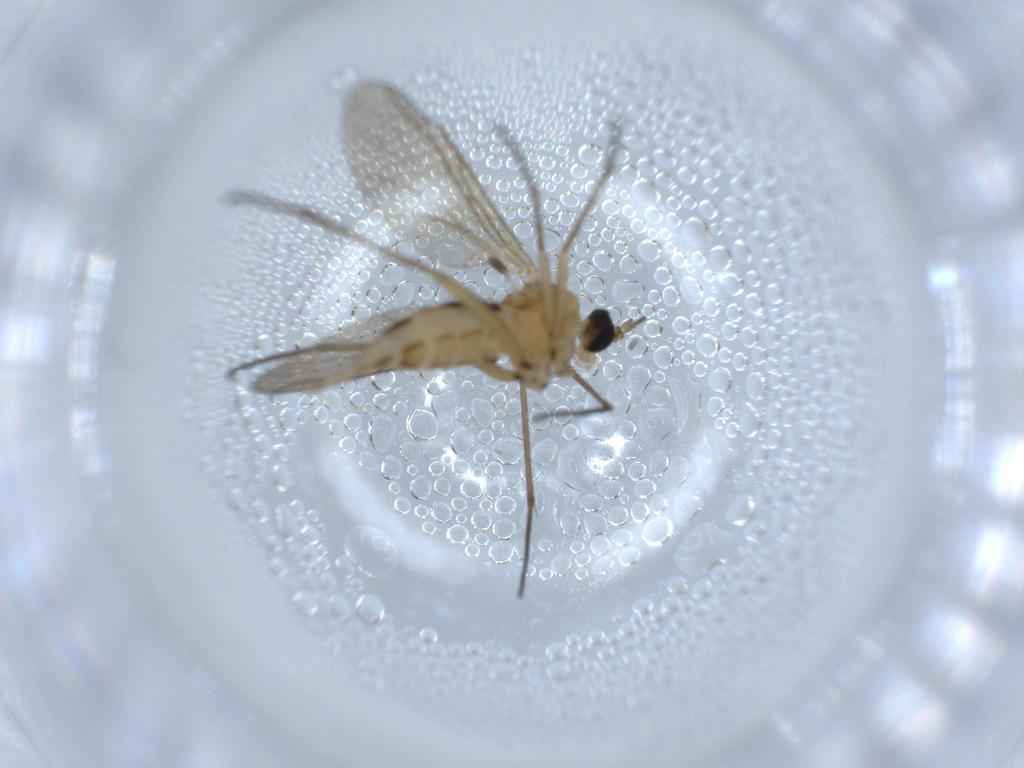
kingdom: Animalia
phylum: Arthropoda
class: Insecta
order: Diptera
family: Cecidomyiidae
